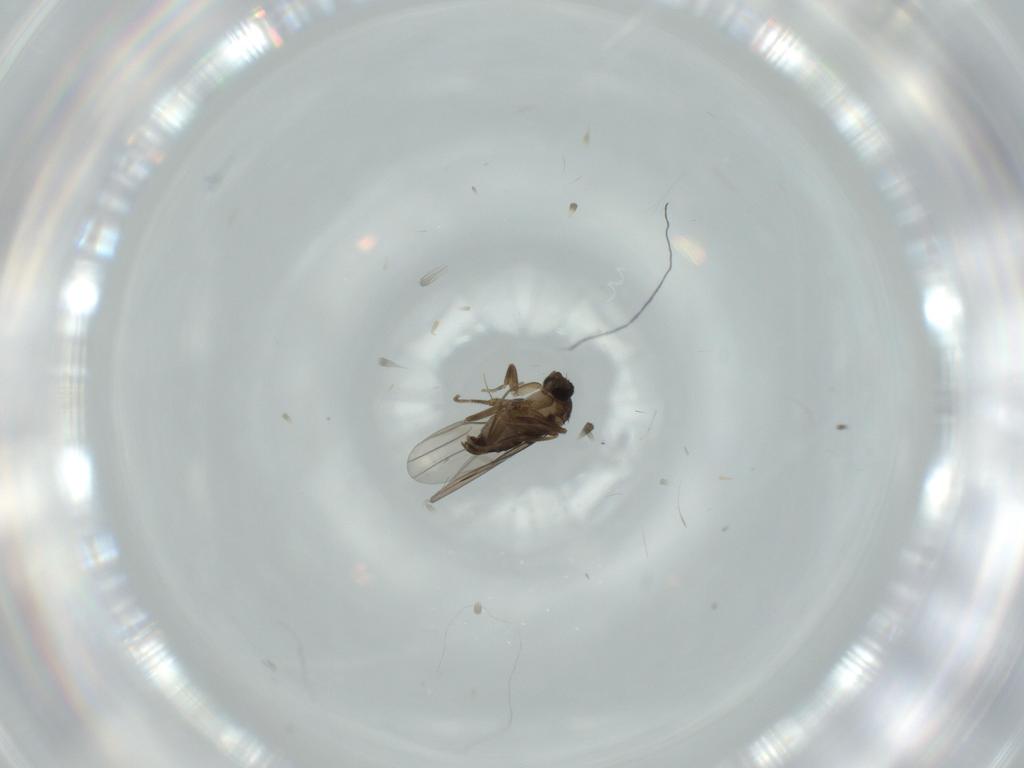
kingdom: Animalia
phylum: Arthropoda
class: Insecta
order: Diptera
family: Phoridae
